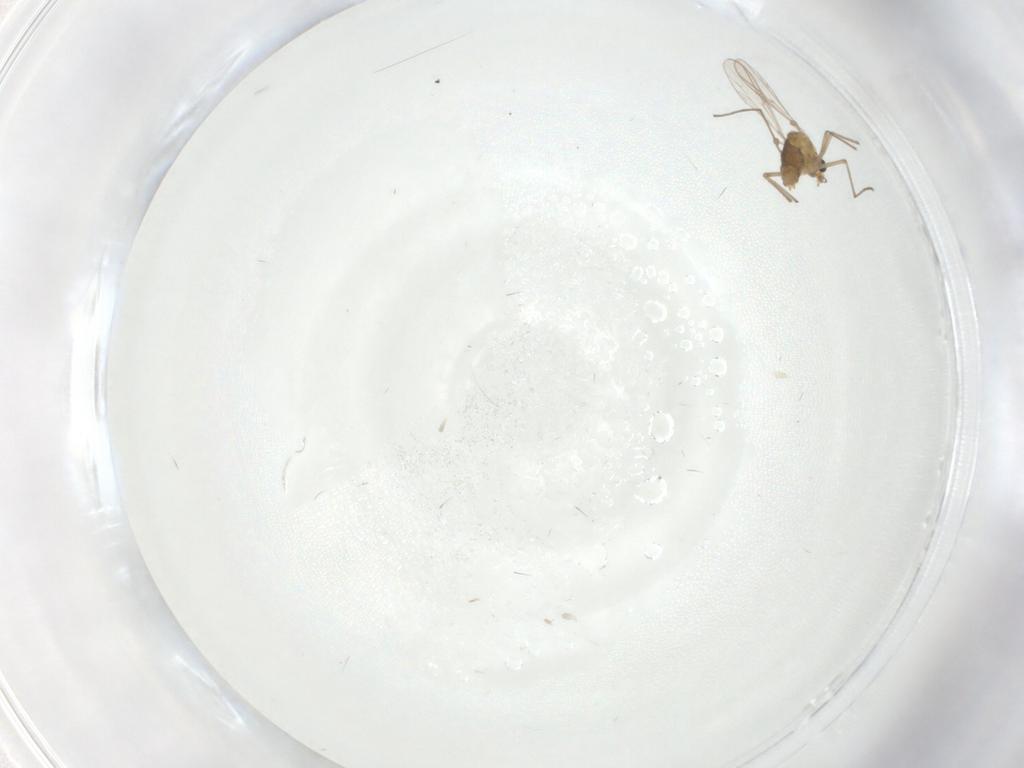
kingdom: Animalia
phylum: Arthropoda
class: Insecta
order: Diptera
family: Chironomidae
